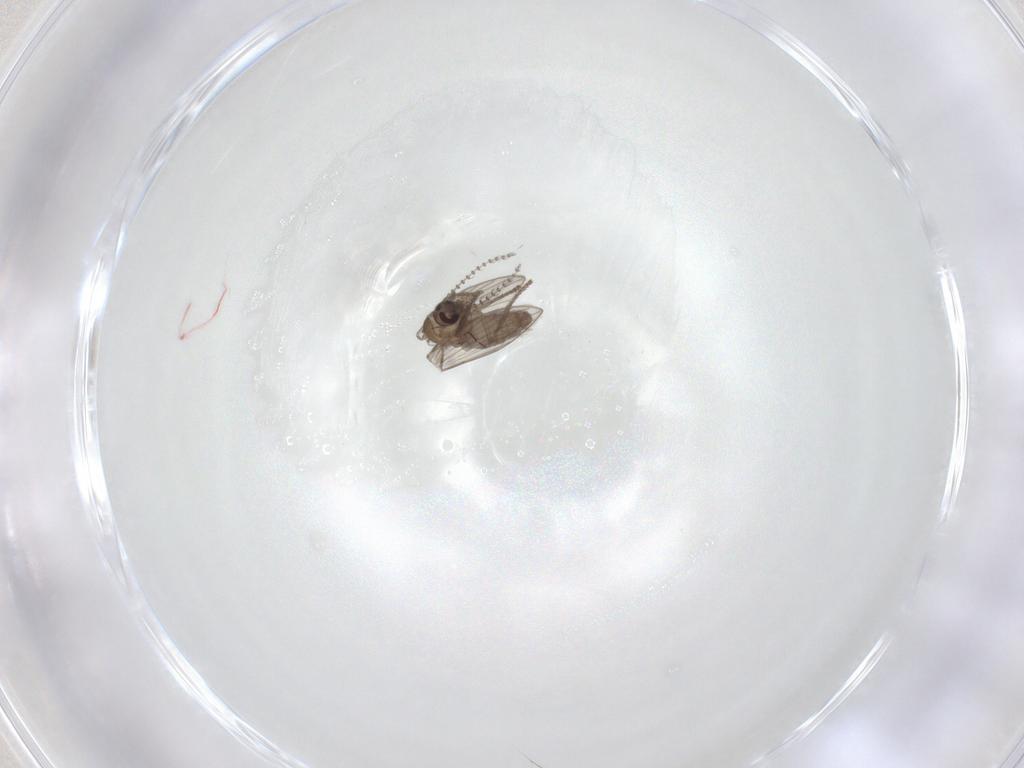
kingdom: Animalia
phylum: Arthropoda
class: Insecta
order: Diptera
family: Psychodidae
